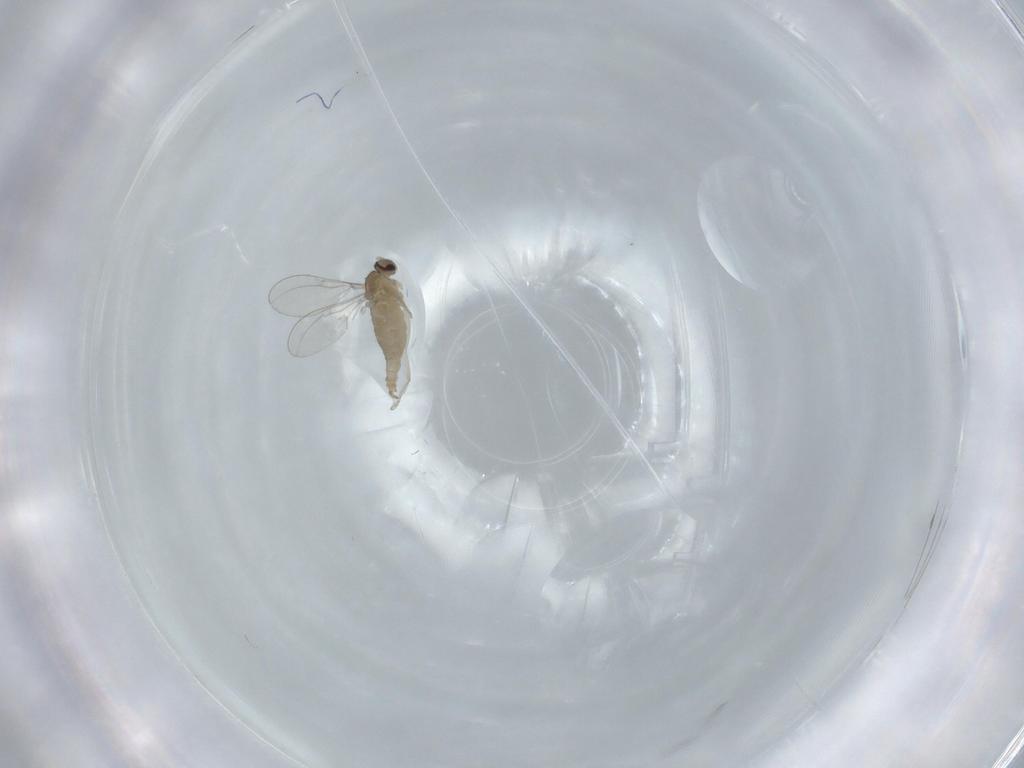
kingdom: Animalia
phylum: Arthropoda
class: Insecta
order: Diptera
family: Cecidomyiidae
